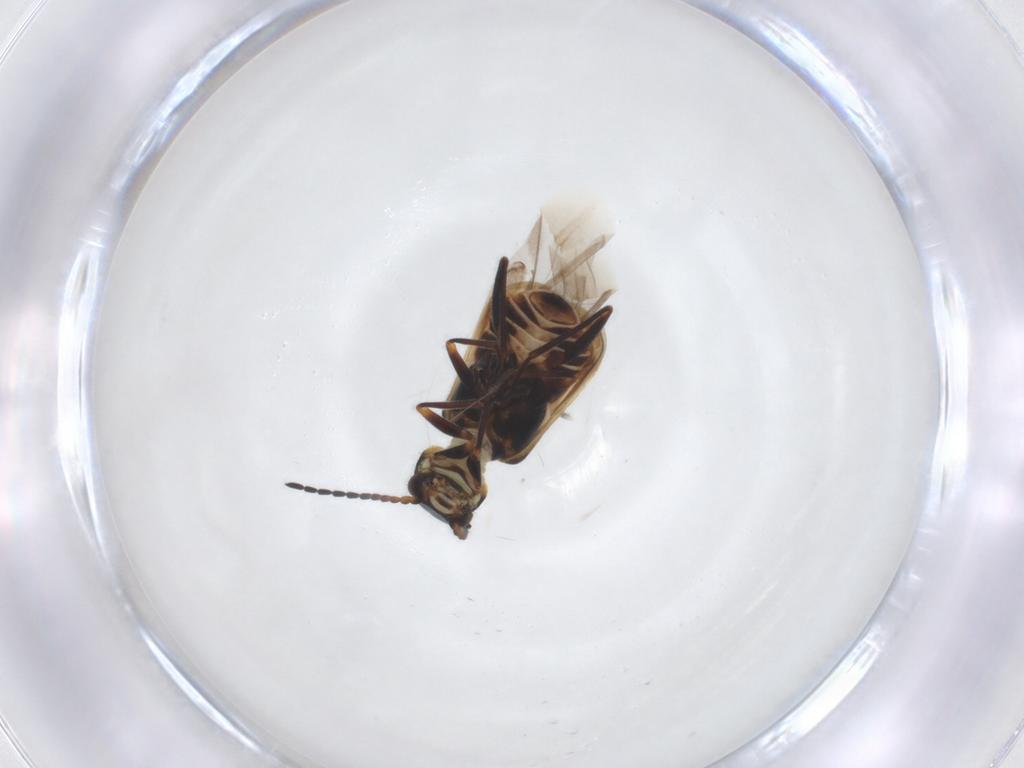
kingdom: Animalia
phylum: Arthropoda
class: Insecta
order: Coleoptera
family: Melyridae
